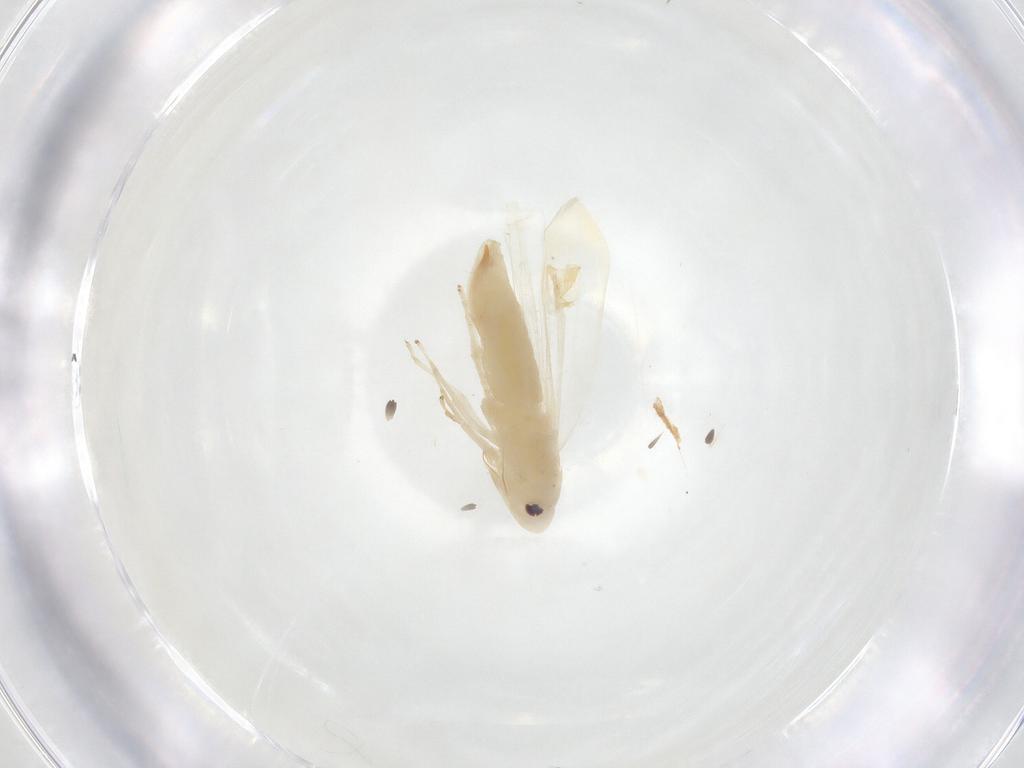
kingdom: Animalia
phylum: Arthropoda
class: Insecta
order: Hemiptera
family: Cicadellidae
